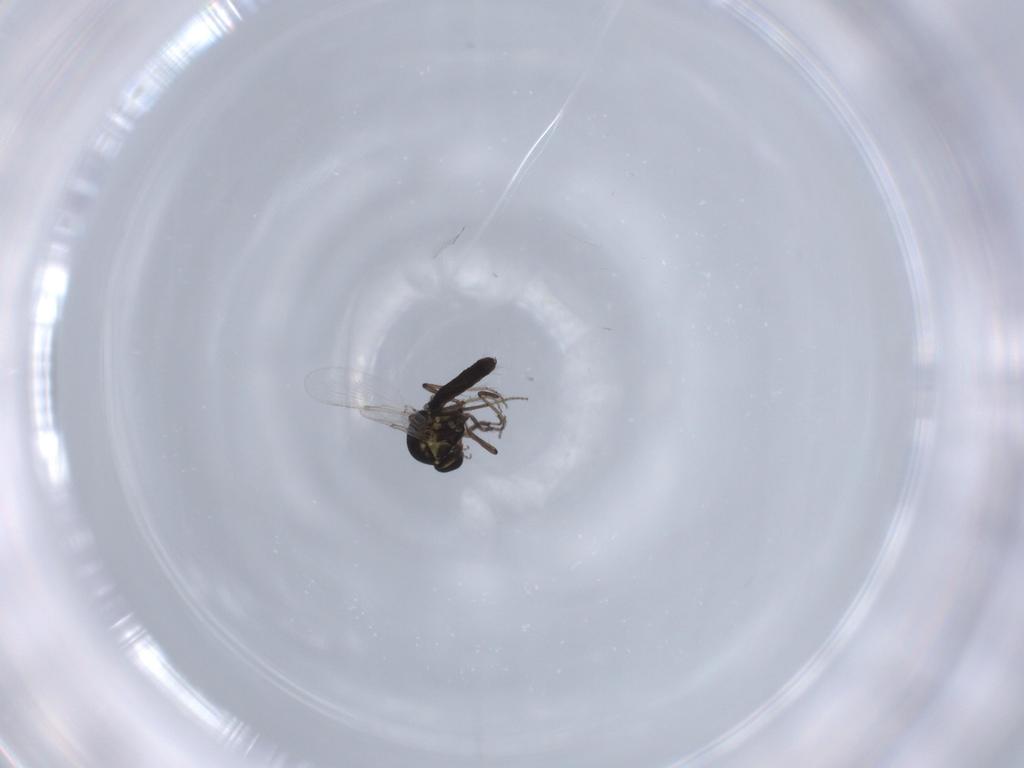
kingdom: Animalia
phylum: Arthropoda
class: Insecta
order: Diptera
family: Ceratopogonidae
